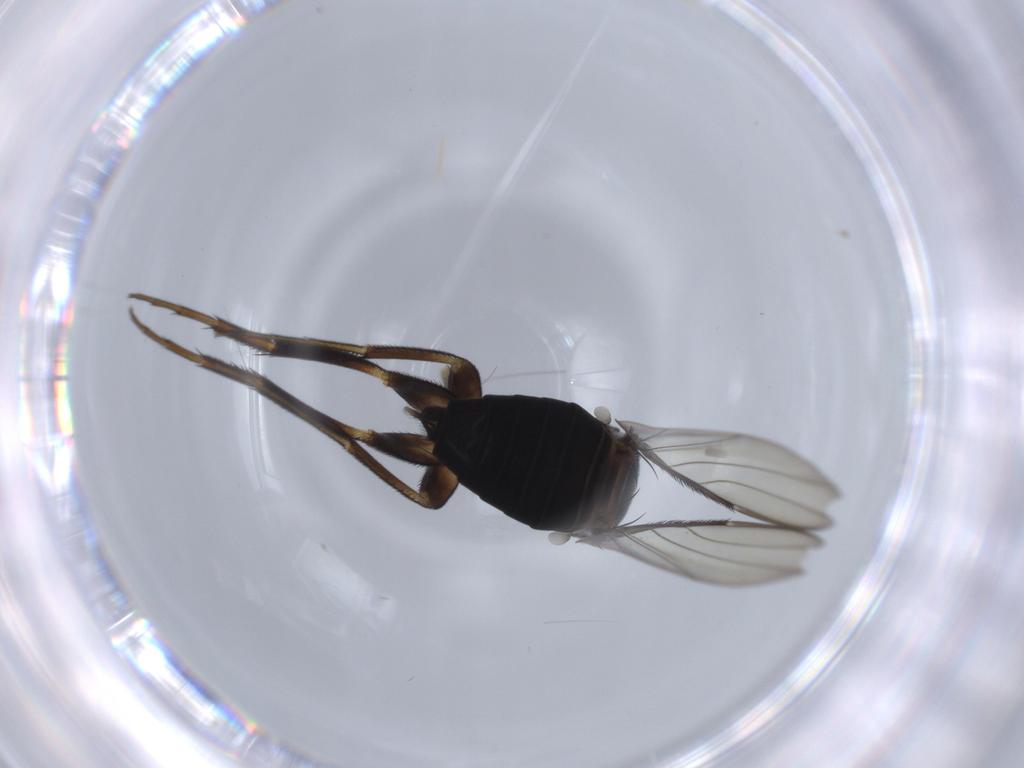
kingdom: Animalia
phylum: Arthropoda
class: Insecta
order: Diptera
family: Phoridae
